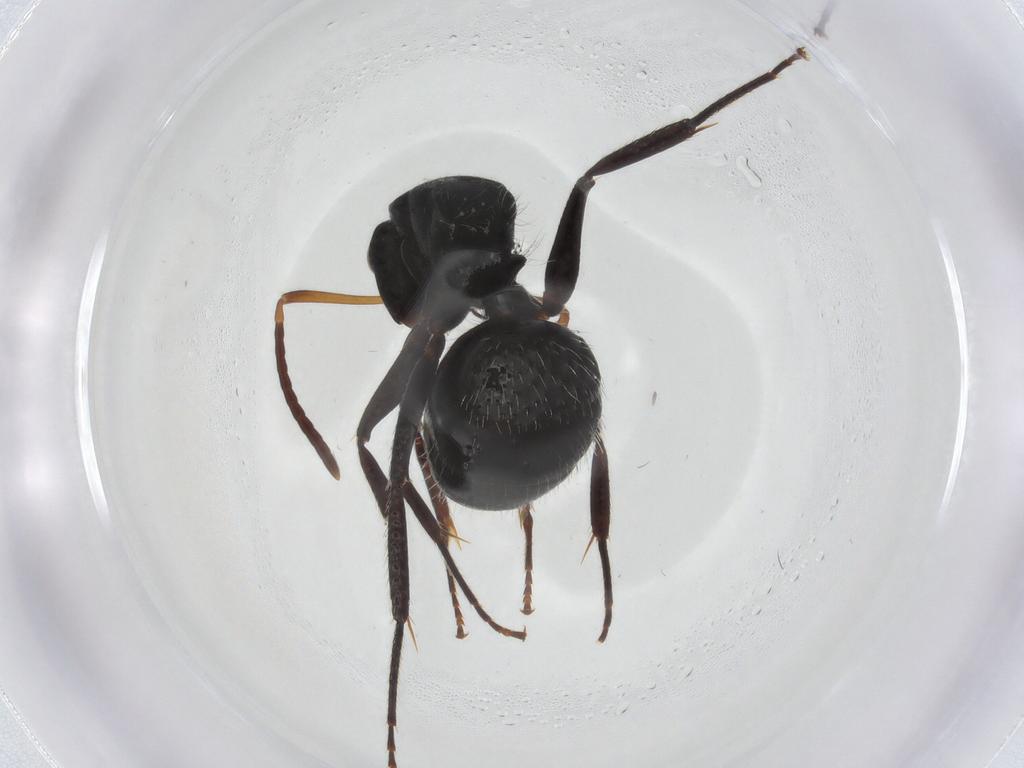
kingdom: Animalia
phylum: Arthropoda
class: Insecta
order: Hymenoptera
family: Formicidae
